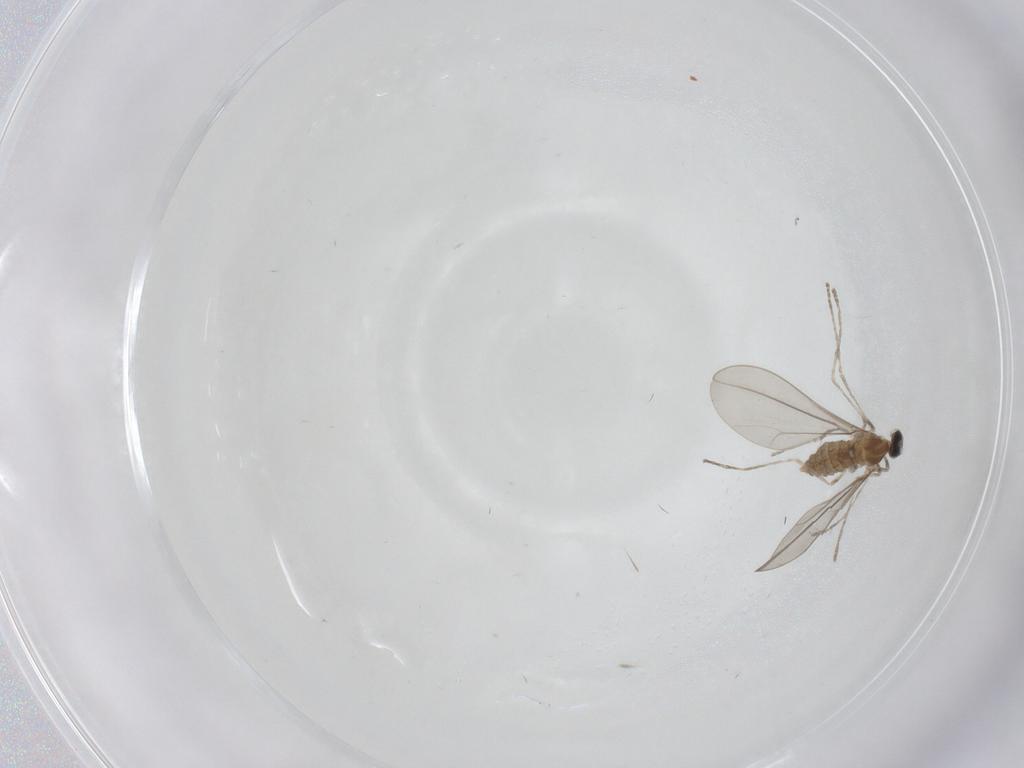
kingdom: Animalia
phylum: Arthropoda
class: Insecta
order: Diptera
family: Cecidomyiidae
